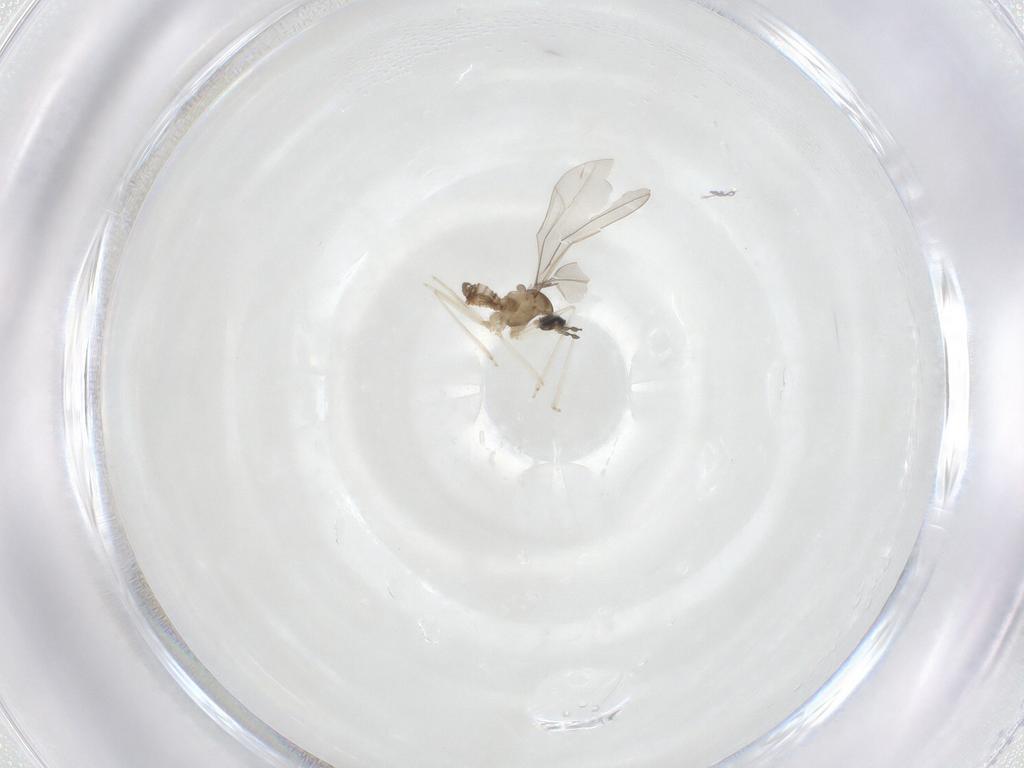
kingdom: Animalia
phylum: Arthropoda
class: Insecta
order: Diptera
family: Cecidomyiidae
